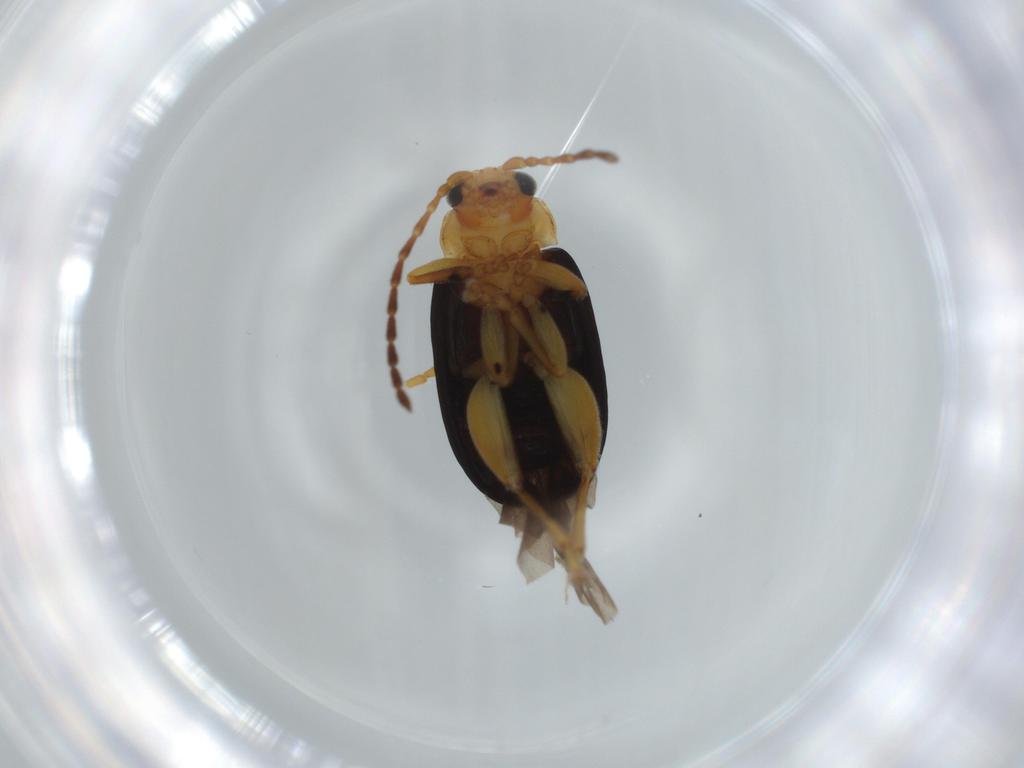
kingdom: Animalia
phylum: Arthropoda
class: Insecta
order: Coleoptera
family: Chrysomelidae
